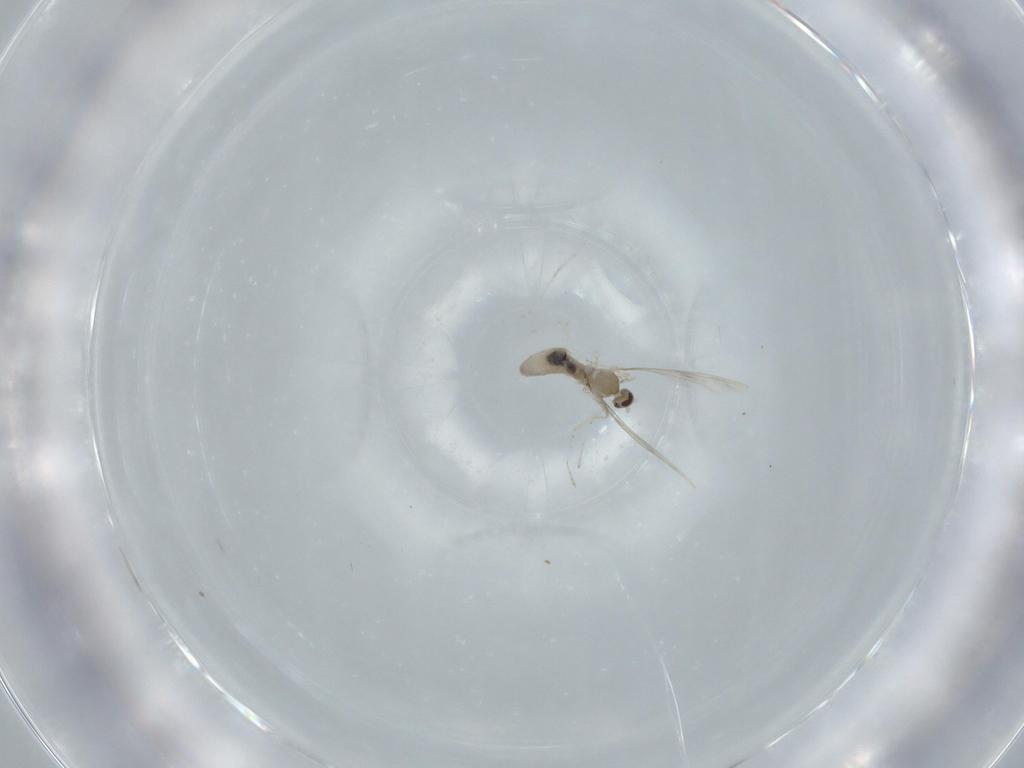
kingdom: Animalia
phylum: Arthropoda
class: Insecta
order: Diptera
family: Cecidomyiidae
